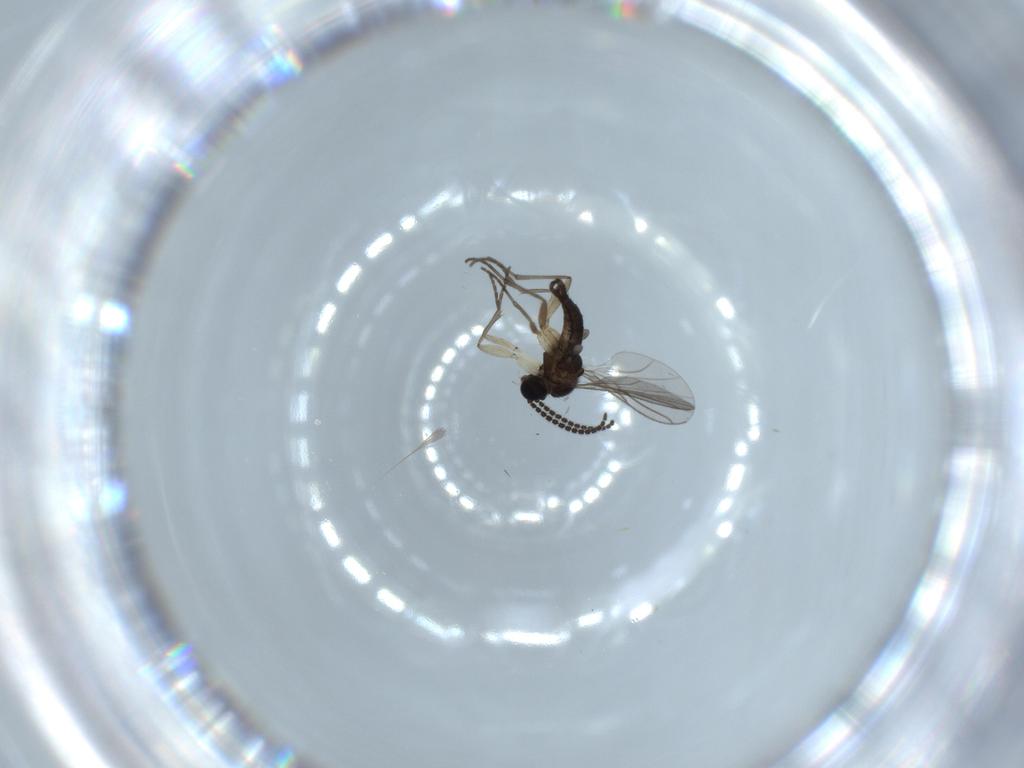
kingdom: Animalia
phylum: Arthropoda
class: Insecta
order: Diptera
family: Sciaridae
